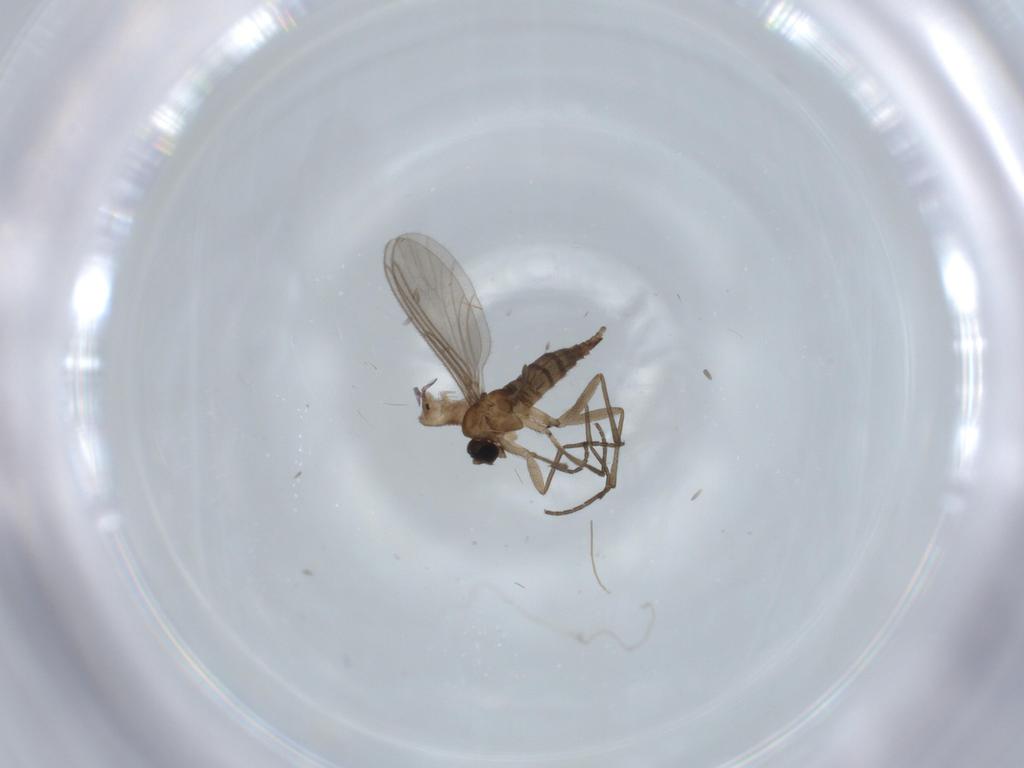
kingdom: Animalia
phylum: Arthropoda
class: Insecta
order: Diptera
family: Sciaridae
